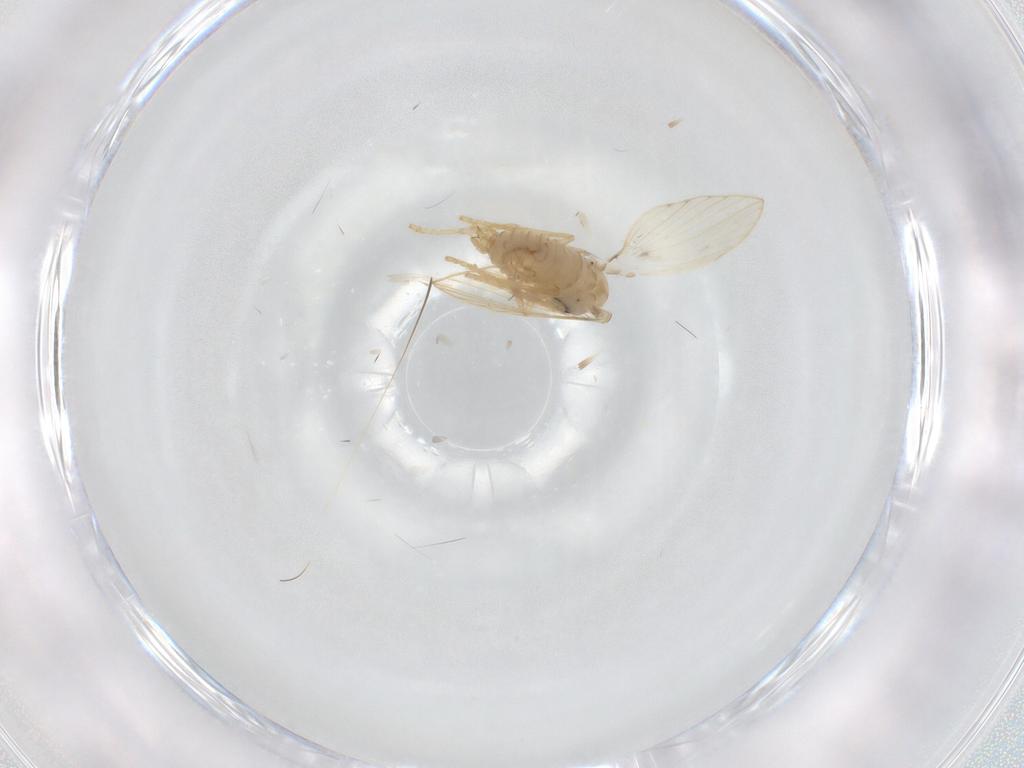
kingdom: Animalia
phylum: Arthropoda
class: Insecta
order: Diptera
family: Psychodidae
